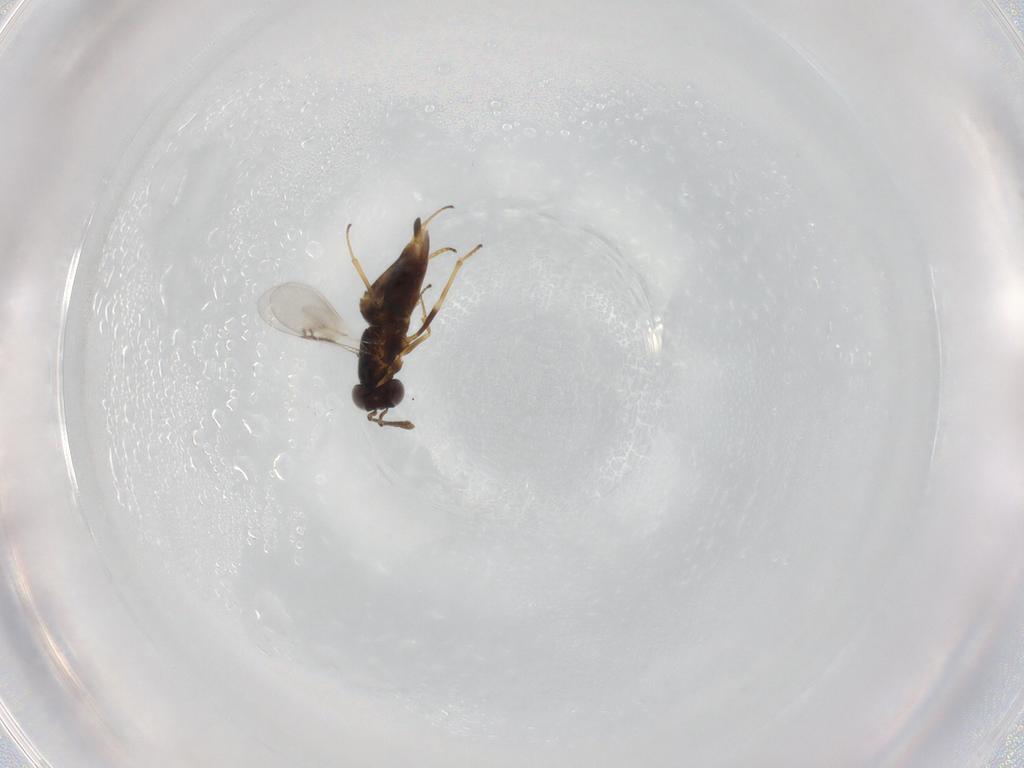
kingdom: Animalia
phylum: Arthropoda
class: Insecta
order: Hymenoptera
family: Encyrtidae
